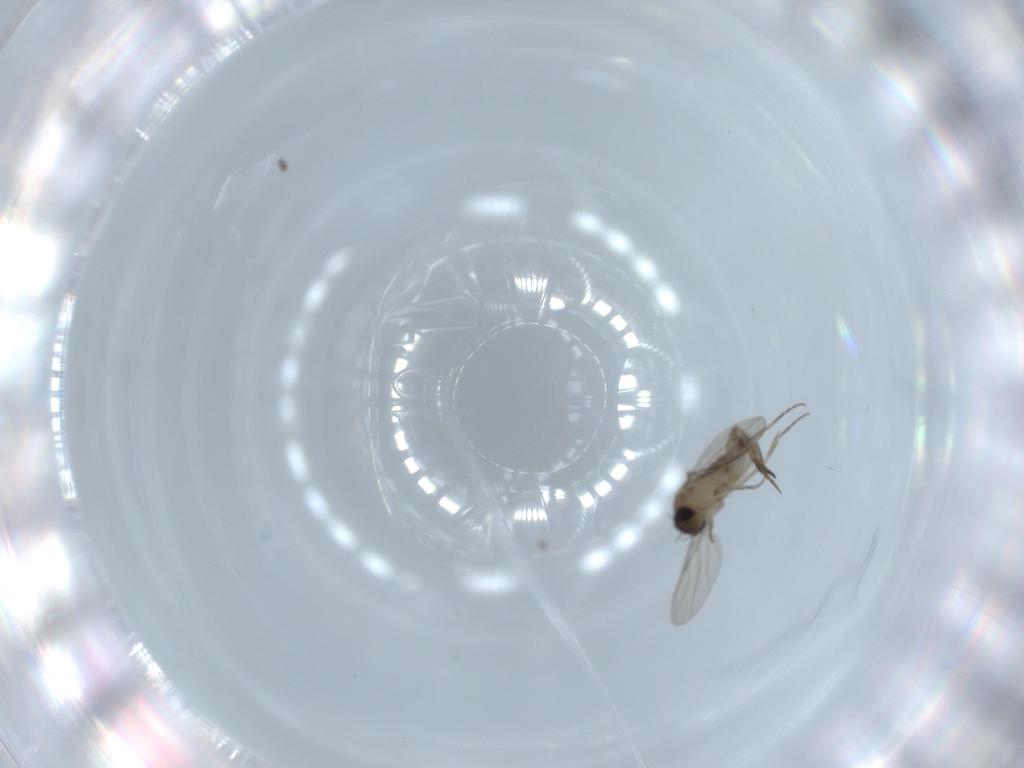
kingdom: Animalia
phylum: Arthropoda
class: Insecta
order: Diptera
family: Phoridae
